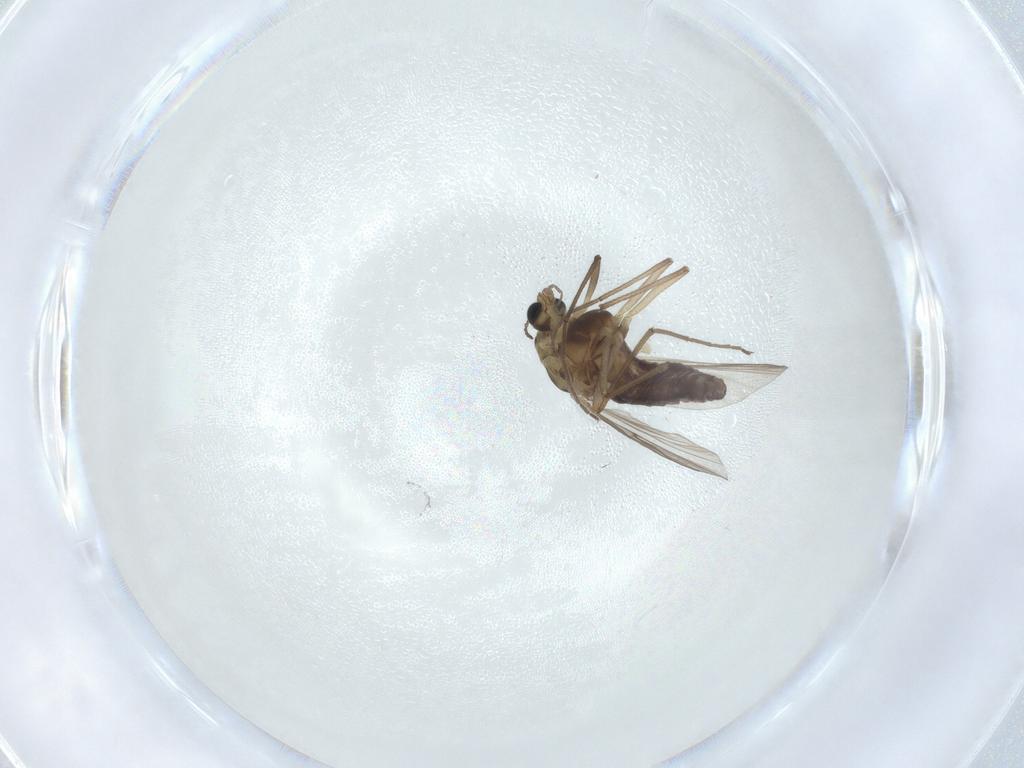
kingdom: Animalia
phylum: Arthropoda
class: Insecta
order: Diptera
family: Chironomidae
